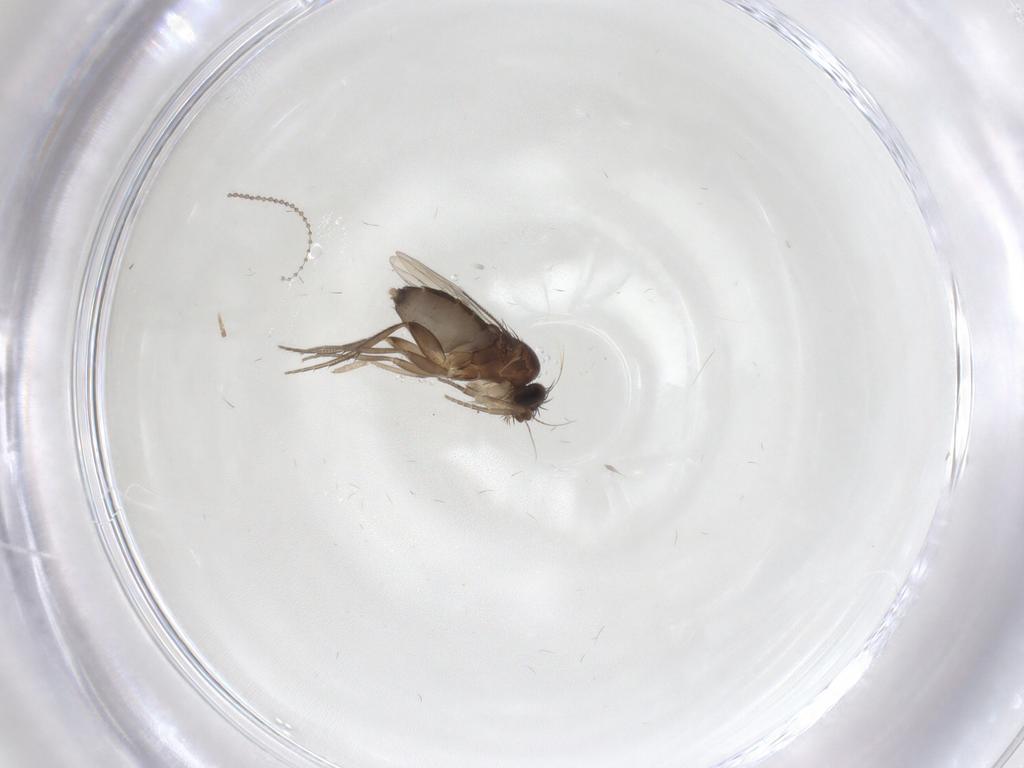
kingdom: Animalia
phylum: Arthropoda
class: Insecta
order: Diptera
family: Phoridae
